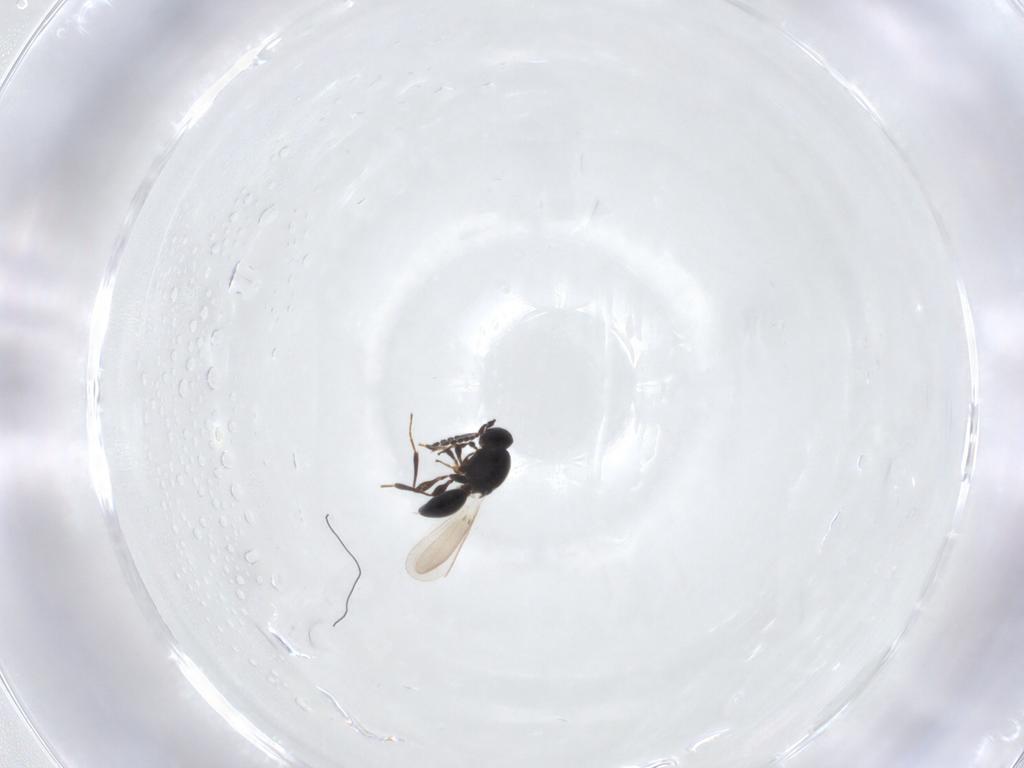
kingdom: Animalia
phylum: Arthropoda
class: Insecta
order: Hymenoptera
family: Platygastridae
